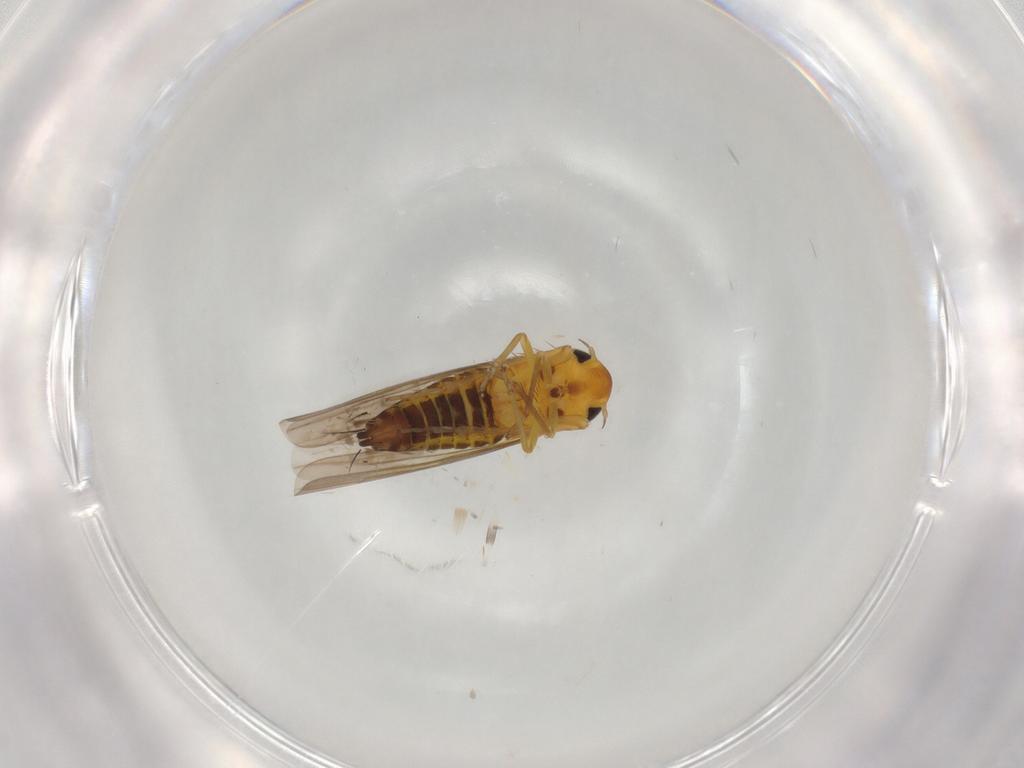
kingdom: Animalia
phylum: Arthropoda
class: Insecta
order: Hemiptera
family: Cicadellidae
